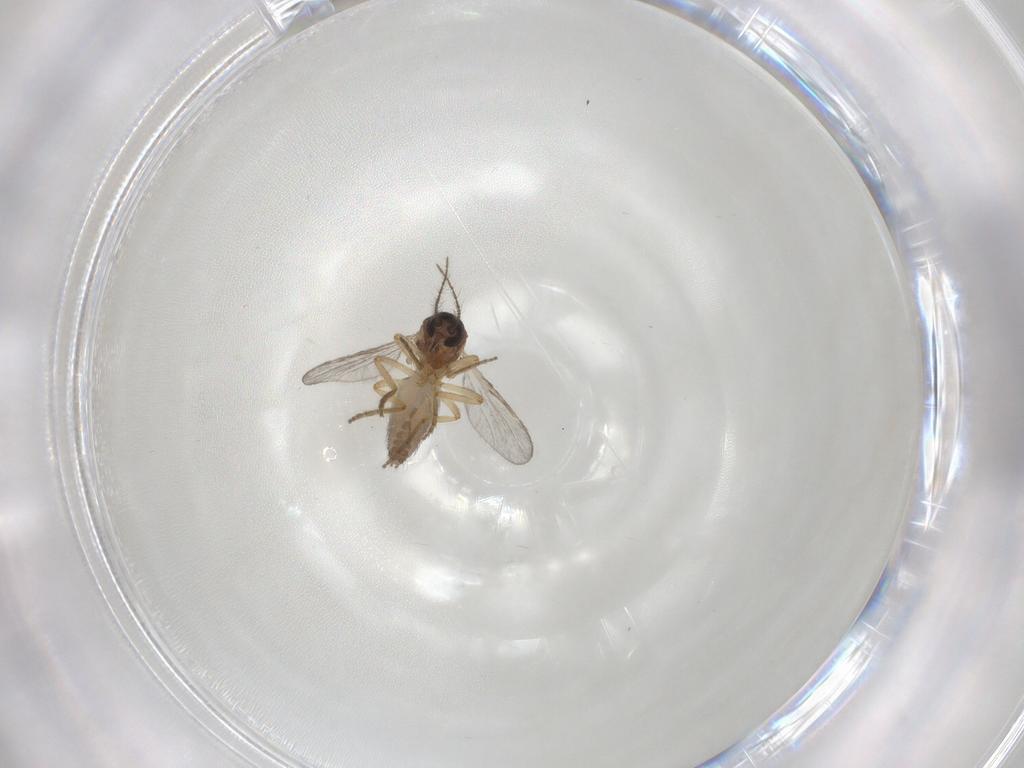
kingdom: Animalia
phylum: Arthropoda
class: Insecta
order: Diptera
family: Ceratopogonidae
